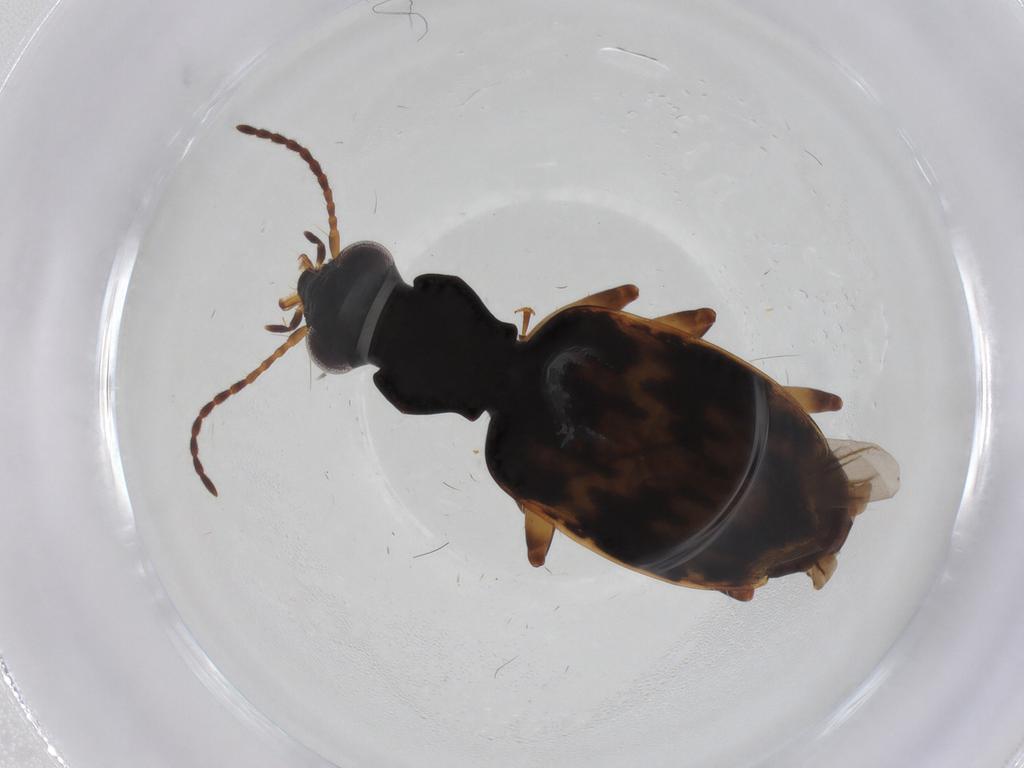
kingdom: Animalia
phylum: Arthropoda
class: Insecta
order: Coleoptera
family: Carabidae
